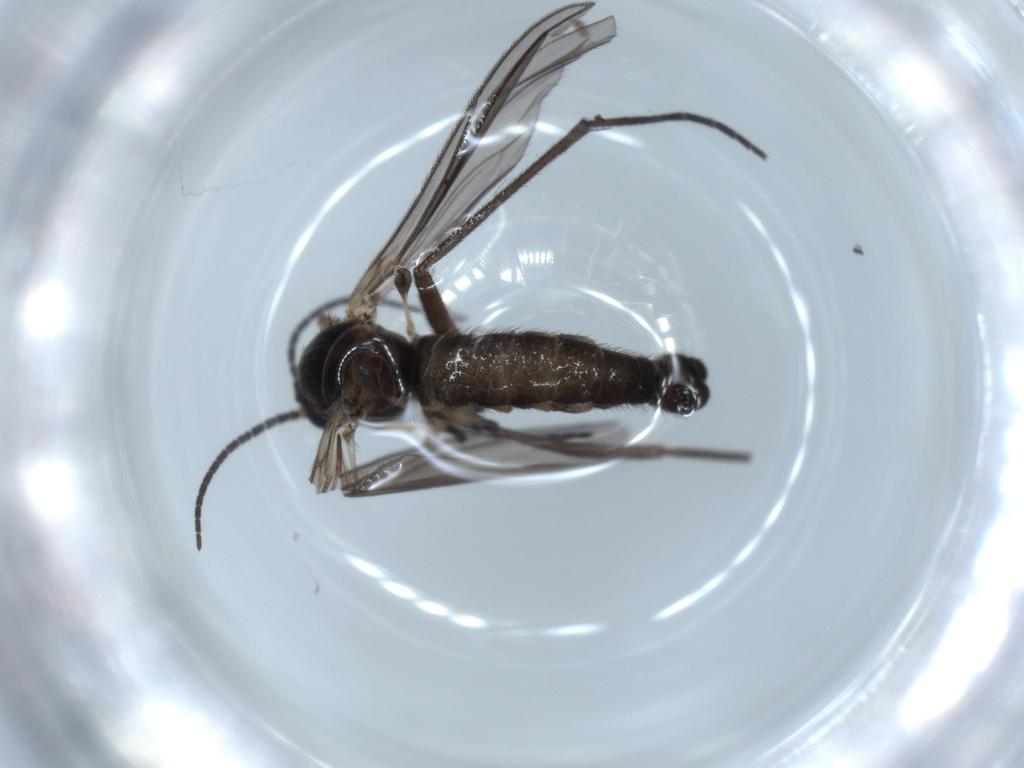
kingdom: Animalia
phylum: Arthropoda
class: Insecta
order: Diptera
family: Sciaridae
